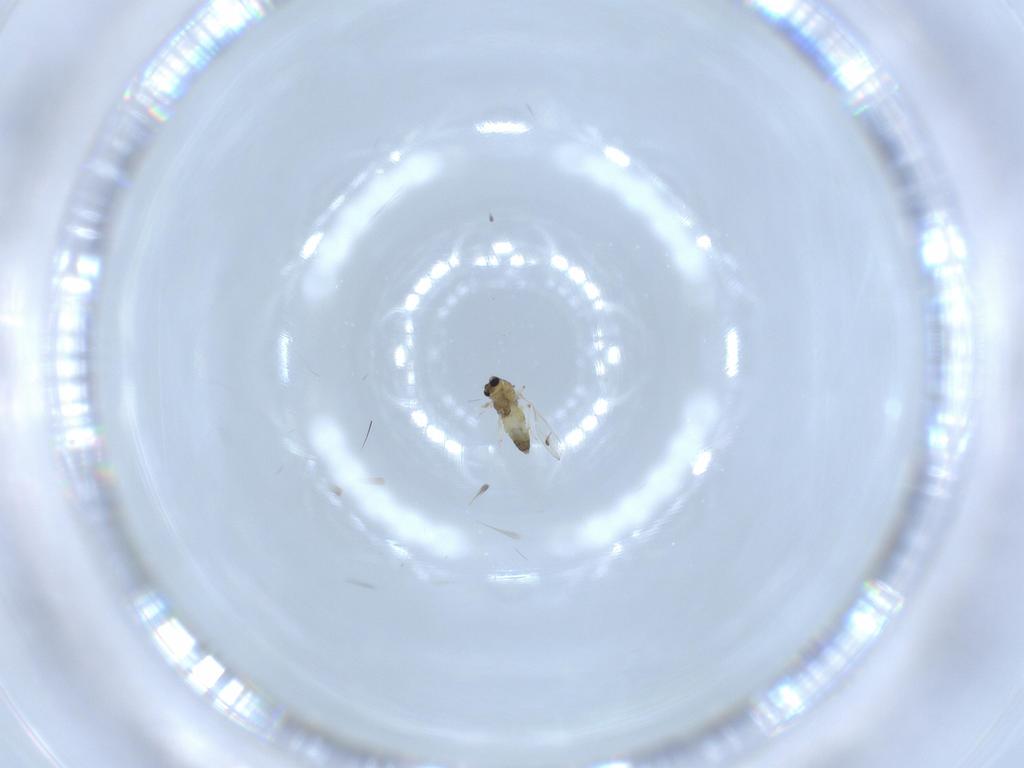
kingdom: Animalia
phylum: Arthropoda
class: Insecta
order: Diptera
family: Chironomidae
